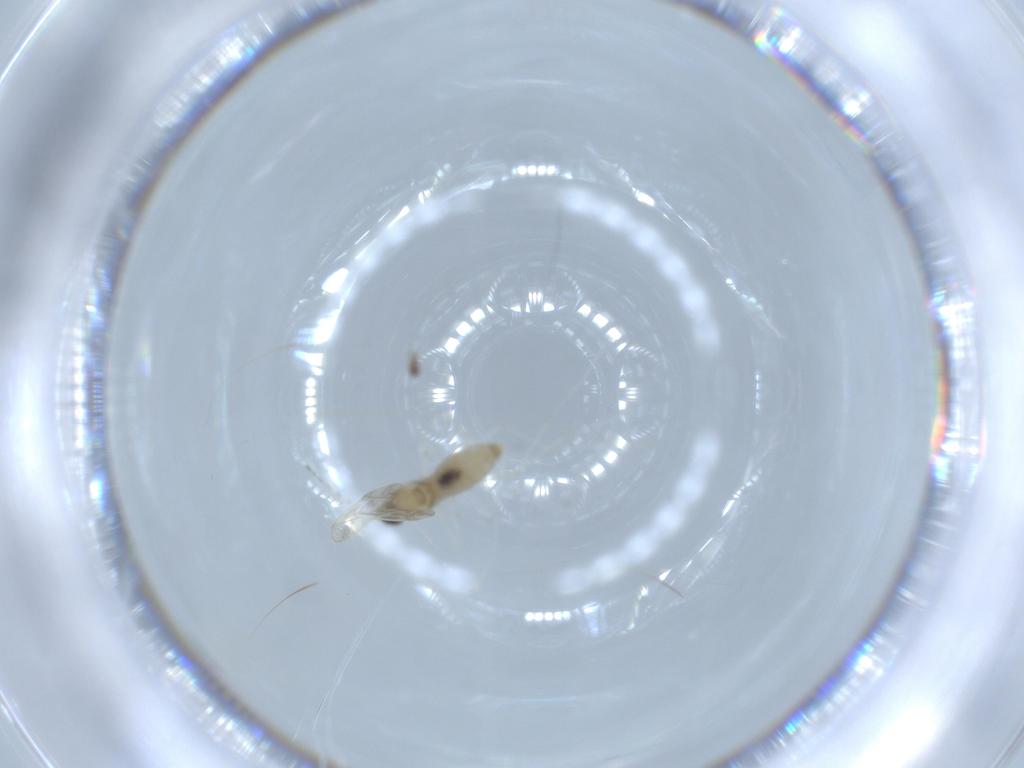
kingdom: Animalia
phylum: Arthropoda
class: Insecta
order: Diptera
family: Cecidomyiidae
